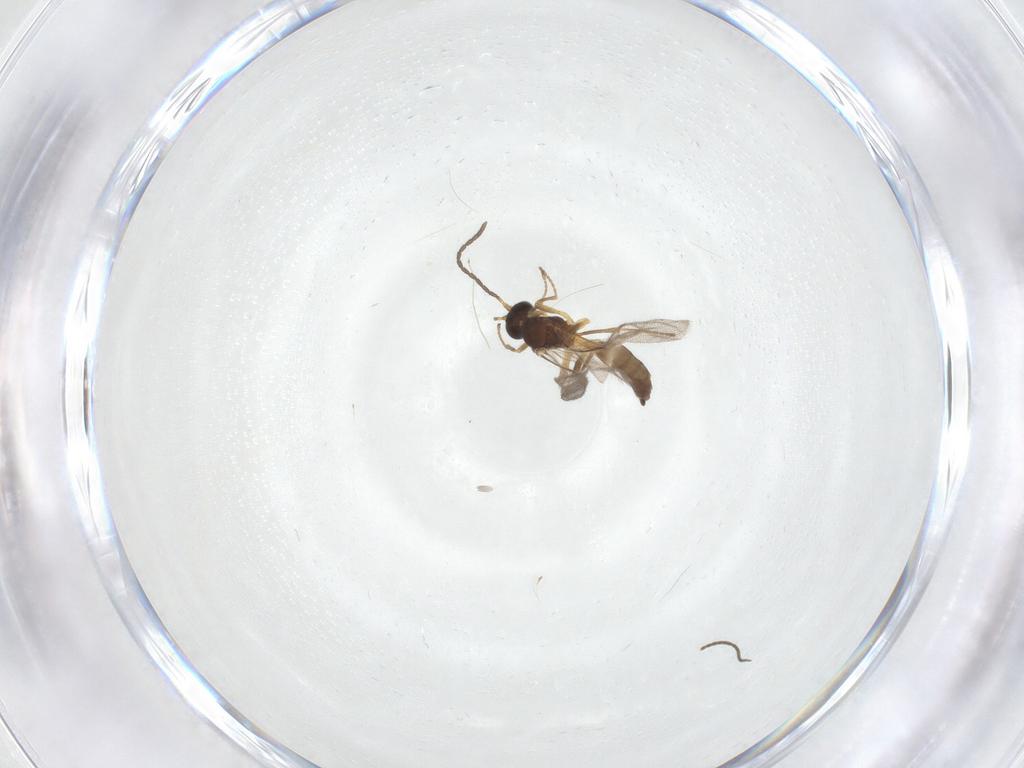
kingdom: Animalia
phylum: Arthropoda
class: Insecta
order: Hymenoptera
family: Braconidae
